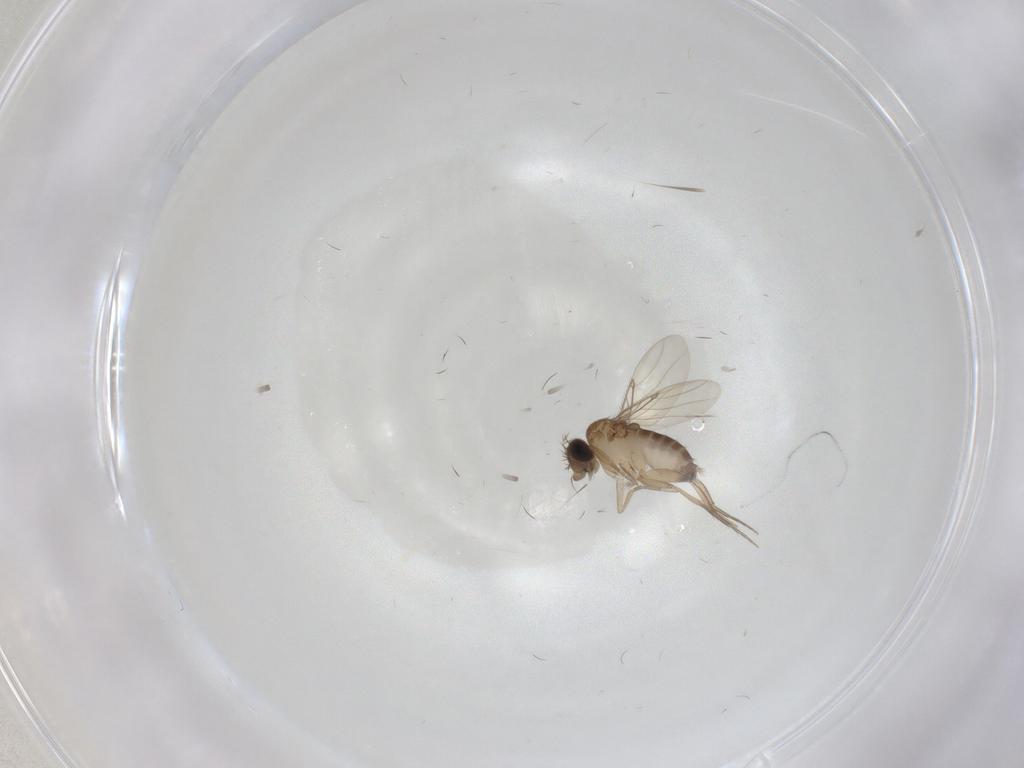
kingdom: Animalia
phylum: Arthropoda
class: Insecta
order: Diptera
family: Phoridae
